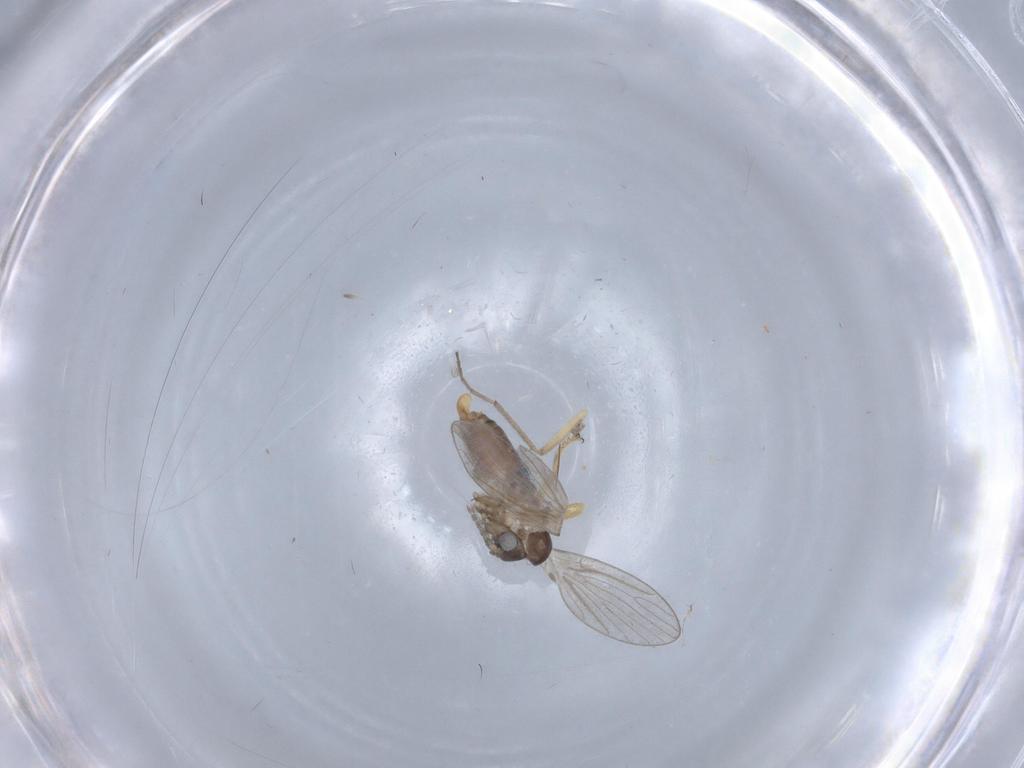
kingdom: Animalia
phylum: Arthropoda
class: Insecta
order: Diptera
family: Chloropidae
